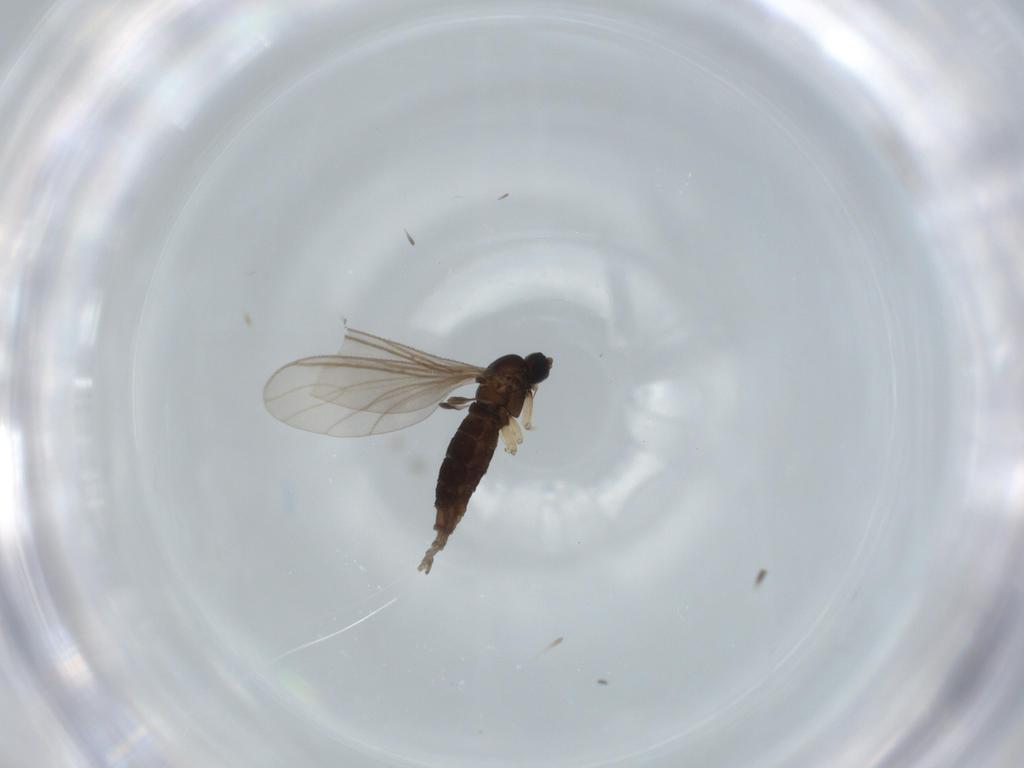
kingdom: Animalia
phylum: Arthropoda
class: Insecta
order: Diptera
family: Sciaridae
